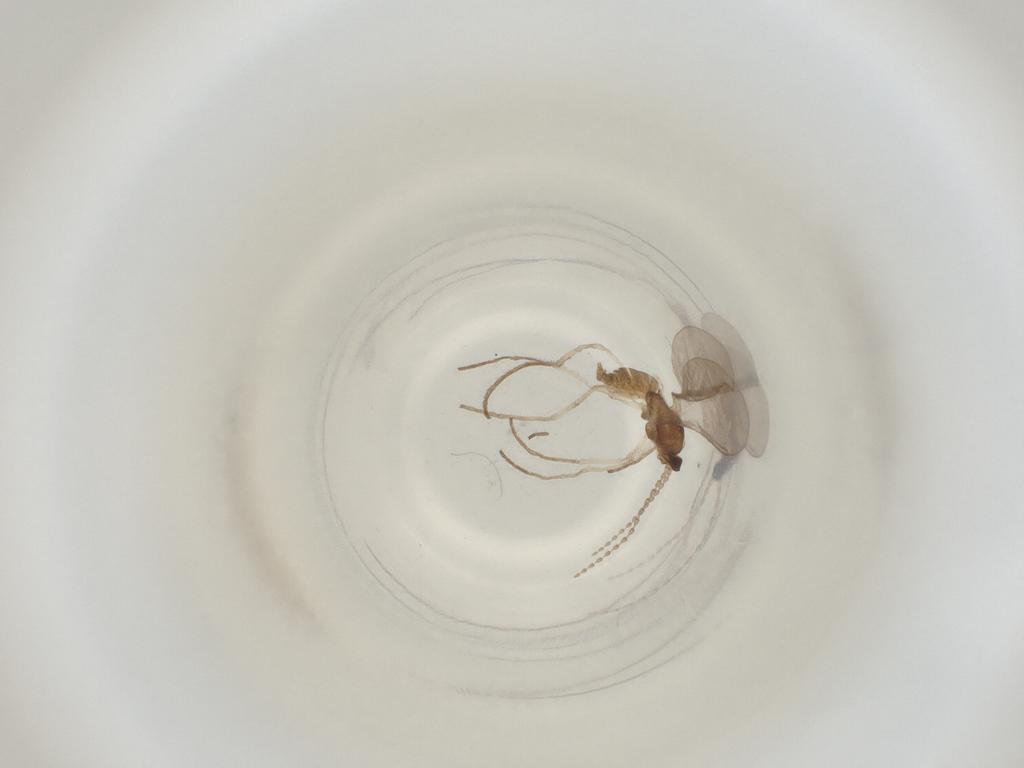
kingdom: Animalia
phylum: Arthropoda
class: Insecta
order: Diptera
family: Cecidomyiidae
